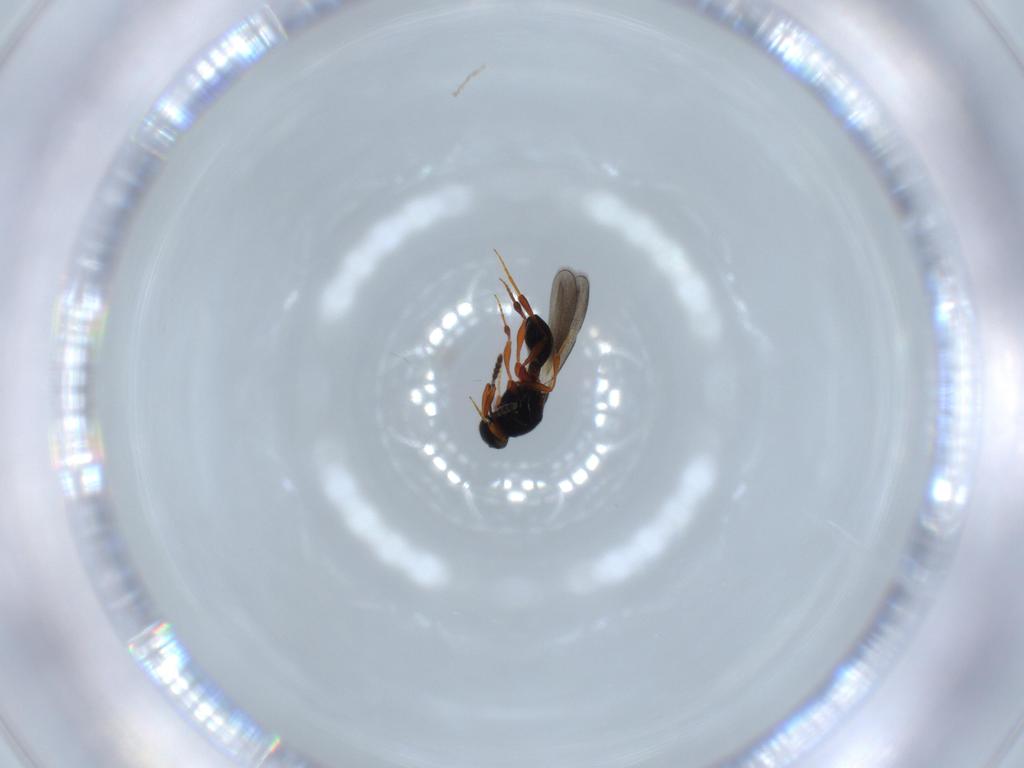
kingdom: Animalia
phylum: Arthropoda
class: Insecta
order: Hymenoptera
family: Platygastridae
